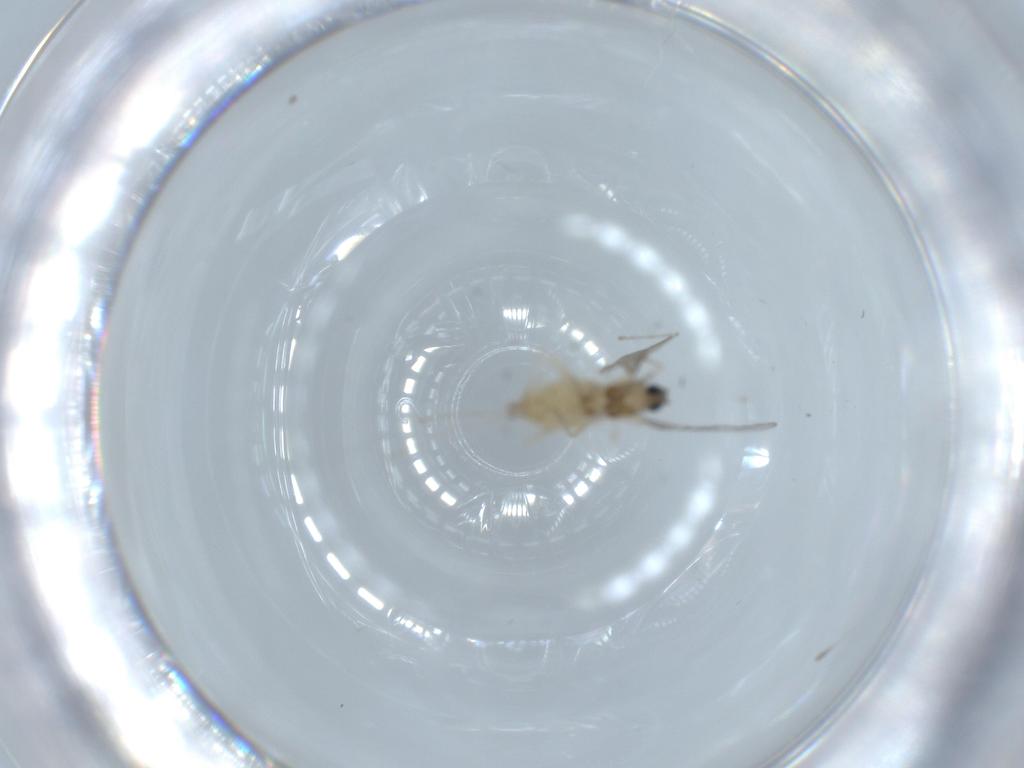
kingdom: Animalia
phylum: Arthropoda
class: Insecta
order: Diptera
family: Cecidomyiidae
